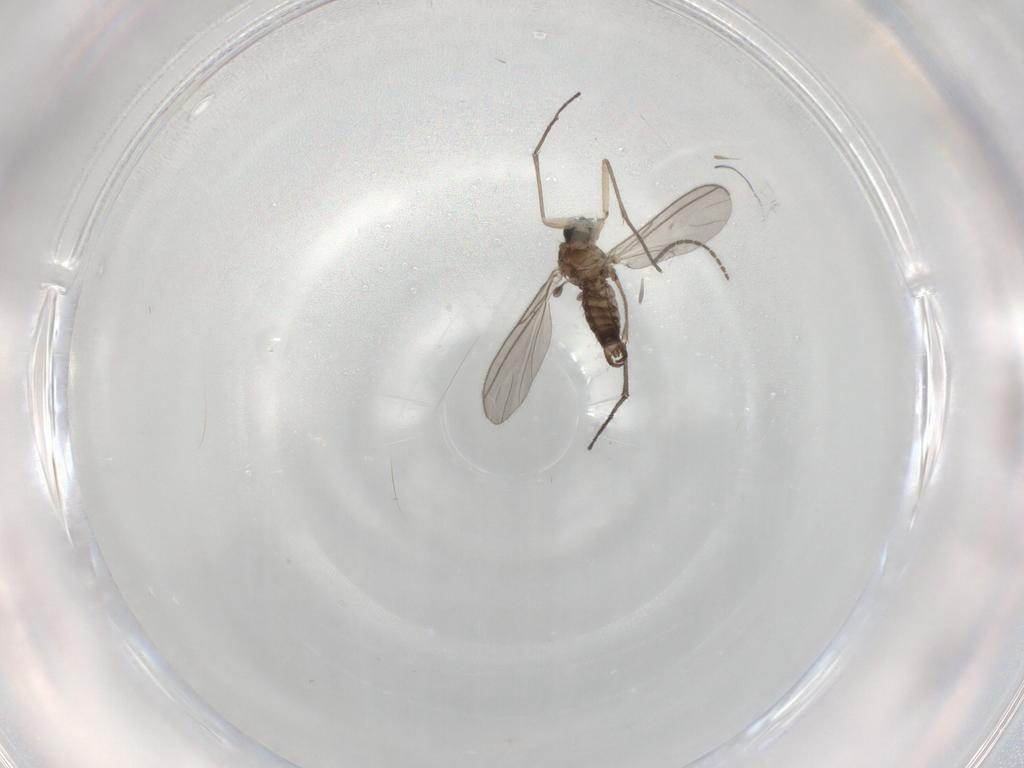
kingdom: Animalia
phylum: Arthropoda
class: Insecta
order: Diptera
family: Sciaridae
